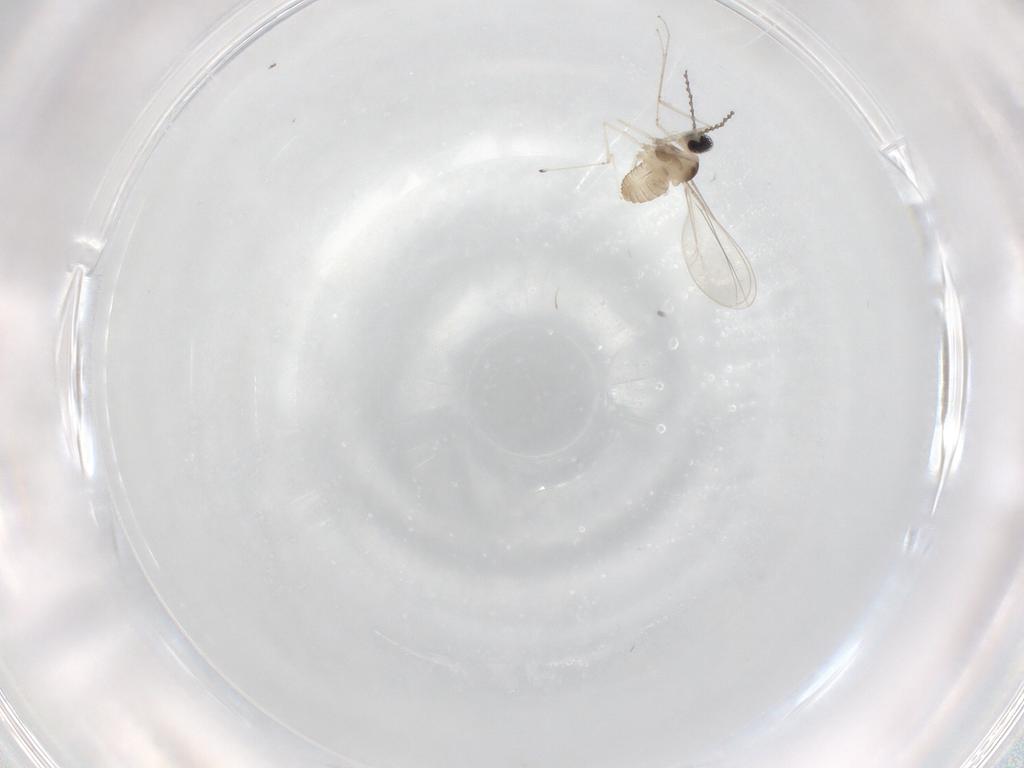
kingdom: Animalia
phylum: Arthropoda
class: Insecta
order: Diptera
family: Cecidomyiidae
